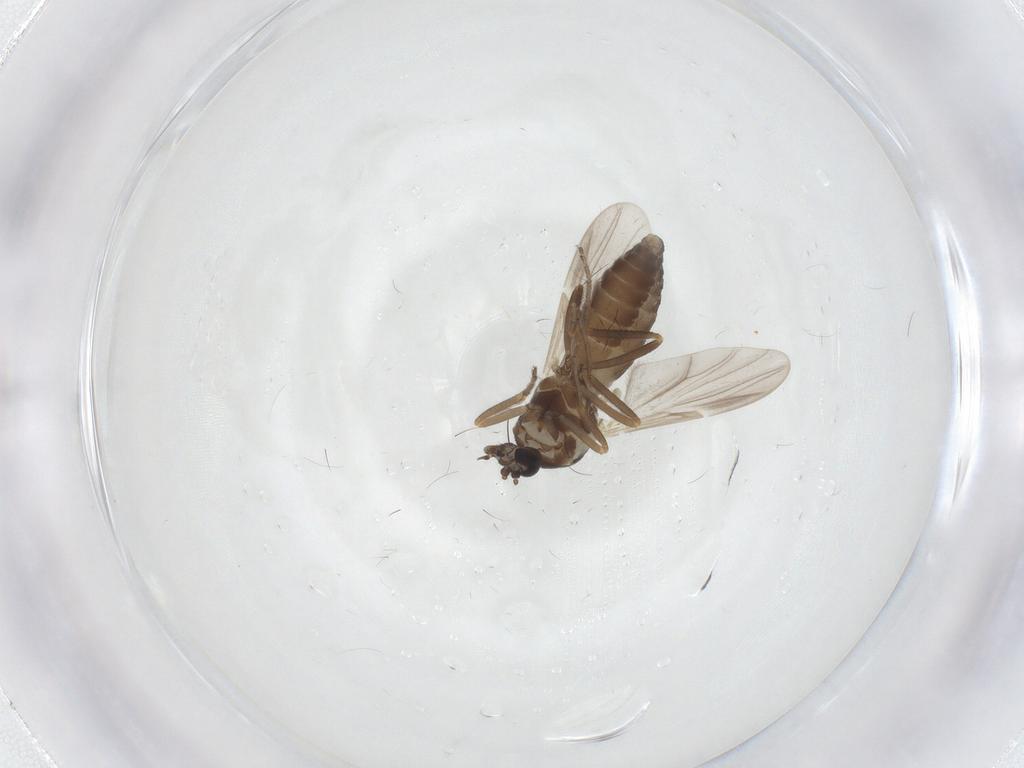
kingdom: Animalia
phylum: Arthropoda
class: Insecta
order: Diptera
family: Ceratopogonidae
